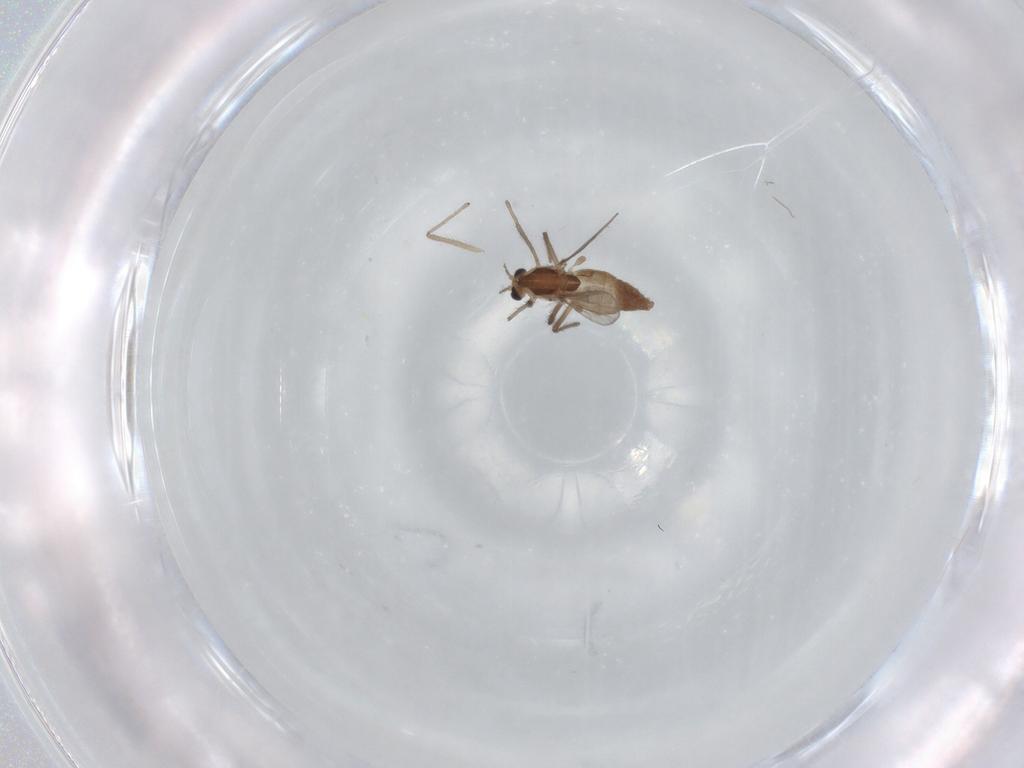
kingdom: Animalia
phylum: Arthropoda
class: Insecta
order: Diptera
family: Chironomidae
